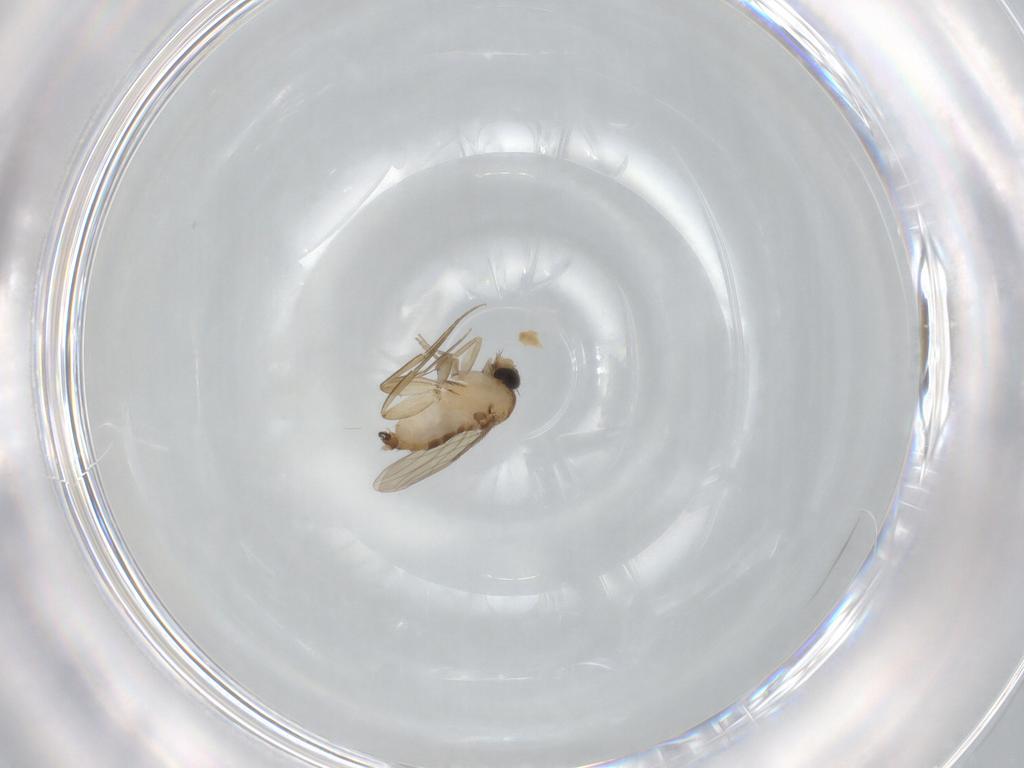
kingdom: Animalia
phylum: Arthropoda
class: Insecta
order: Diptera
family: Phoridae
